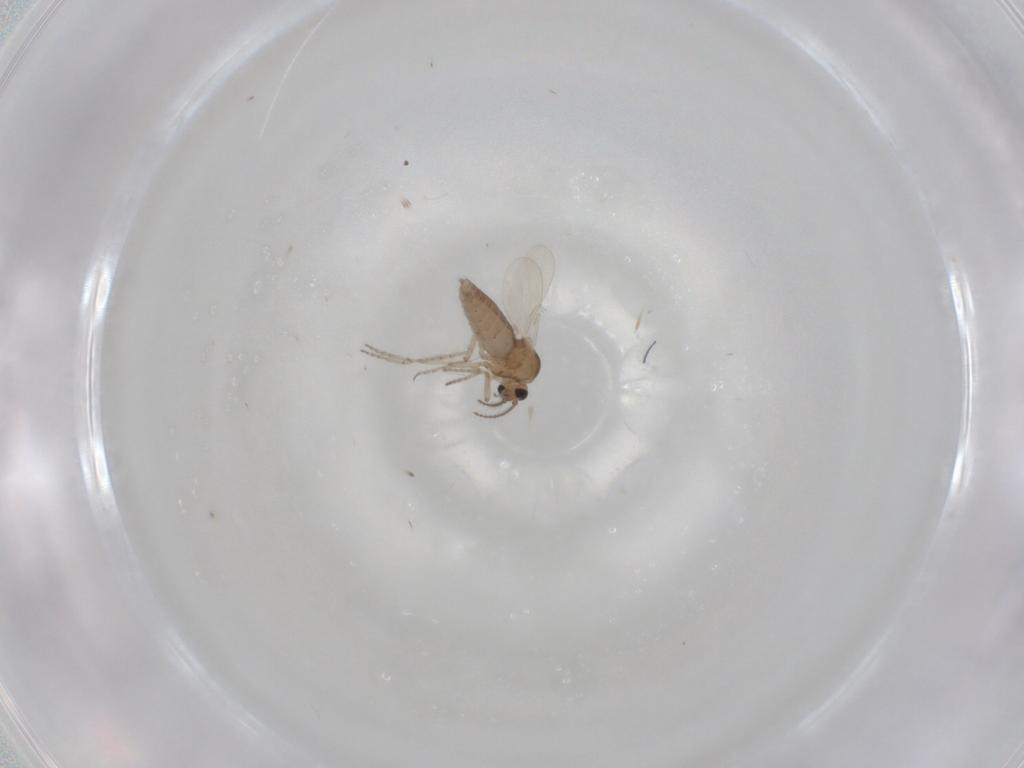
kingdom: Animalia
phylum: Arthropoda
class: Insecta
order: Diptera
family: Ceratopogonidae
